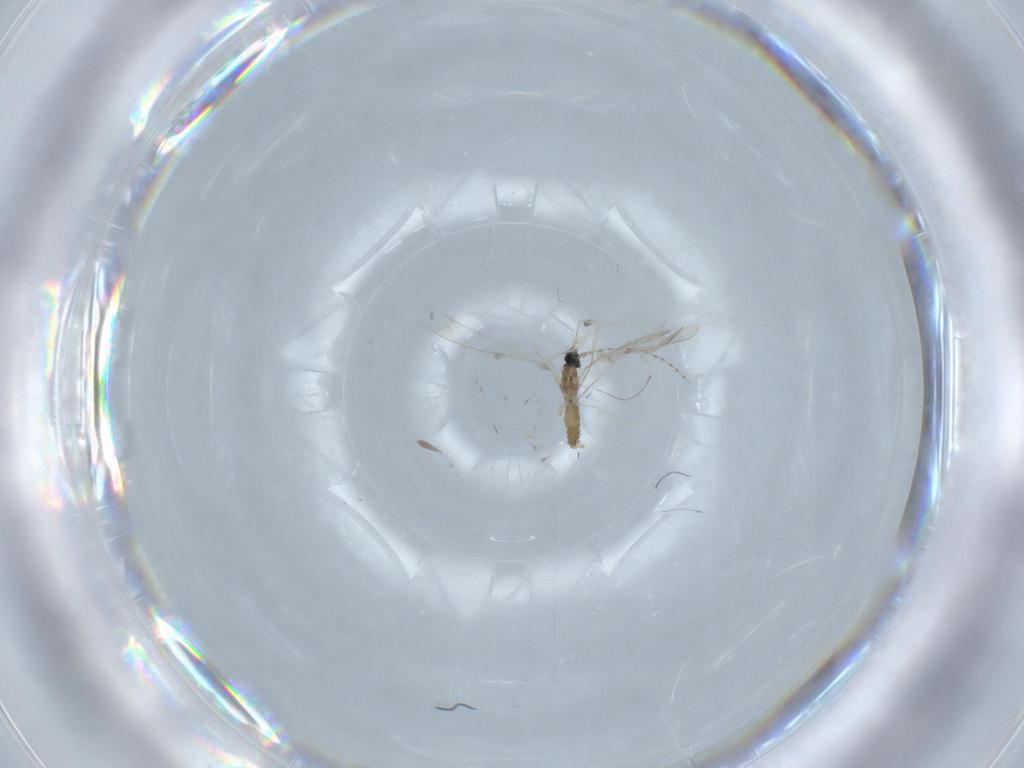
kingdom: Animalia
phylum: Arthropoda
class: Insecta
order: Diptera
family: Cecidomyiidae
